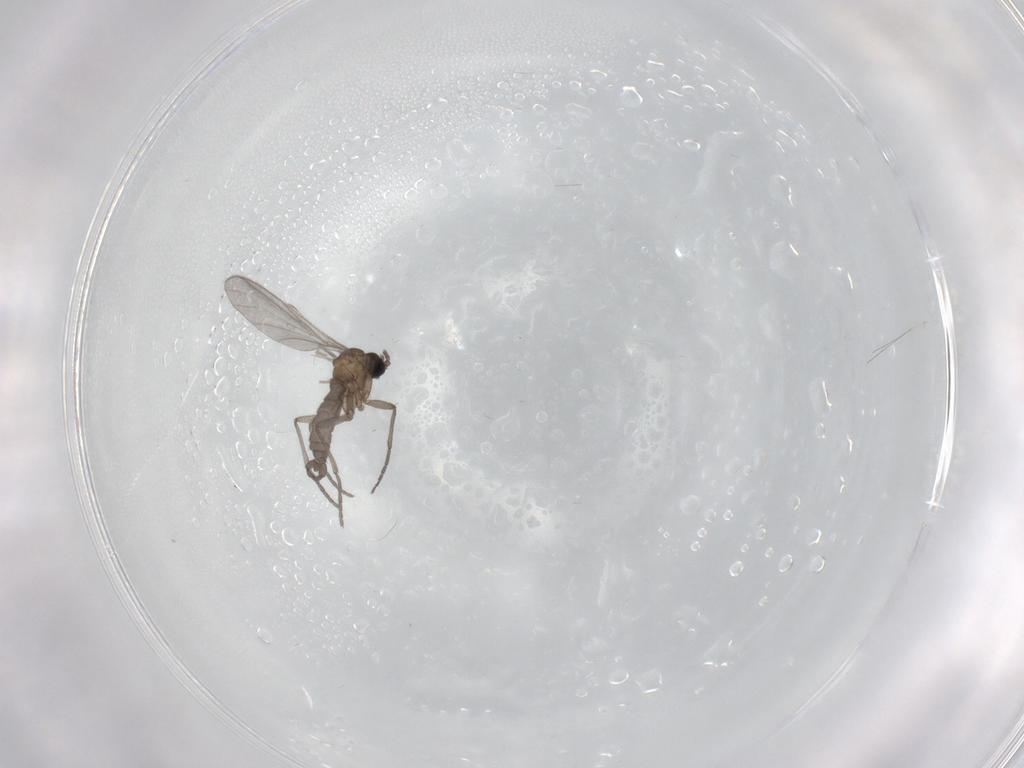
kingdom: Animalia
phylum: Arthropoda
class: Insecta
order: Diptera
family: Sciaridae
